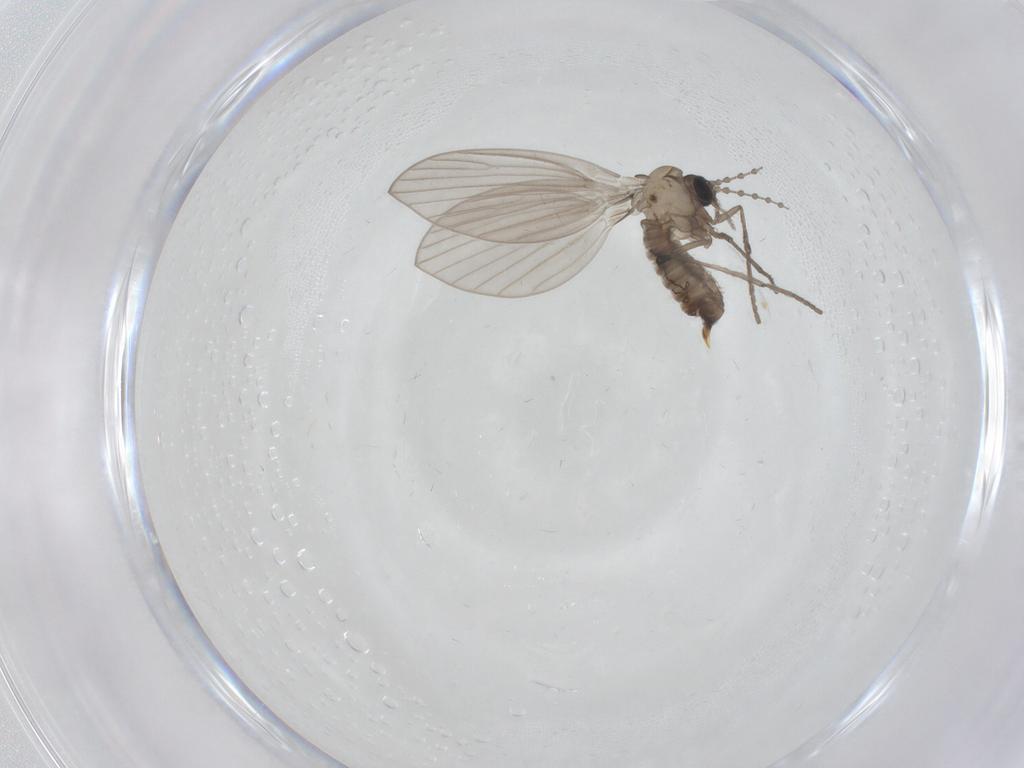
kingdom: Animalia
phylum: Arthropoda
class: Insecta
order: Diptera
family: Psychodidae
